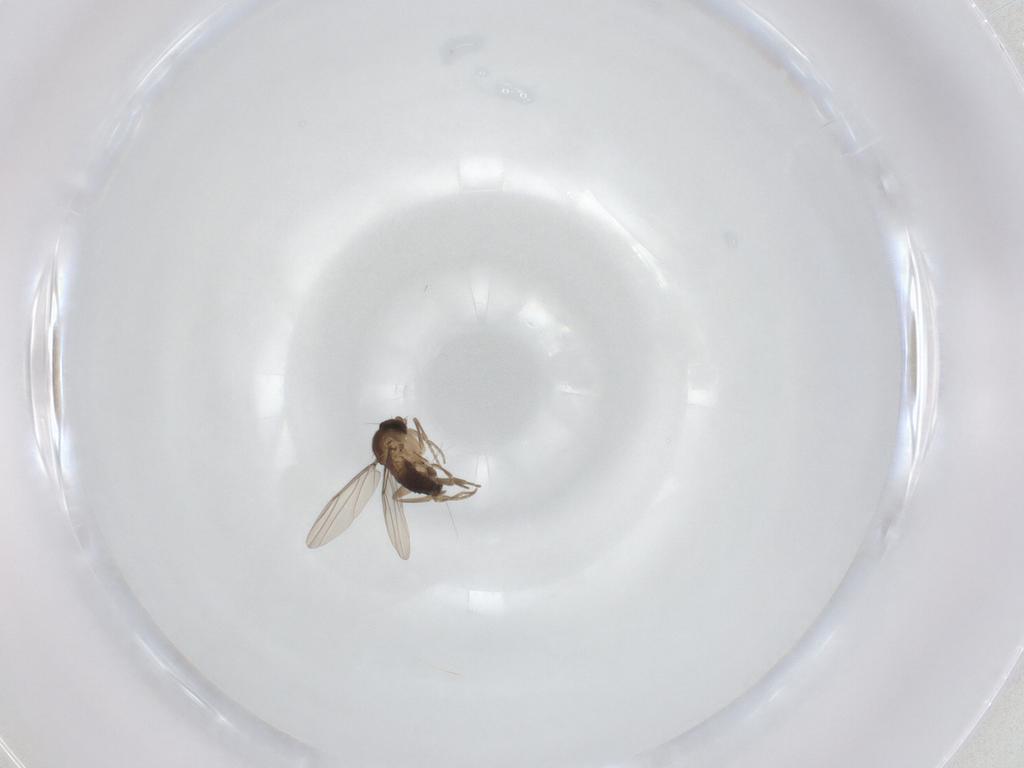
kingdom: Animalia
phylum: Arthropoda
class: Insecta
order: Diptera
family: Phoridae
